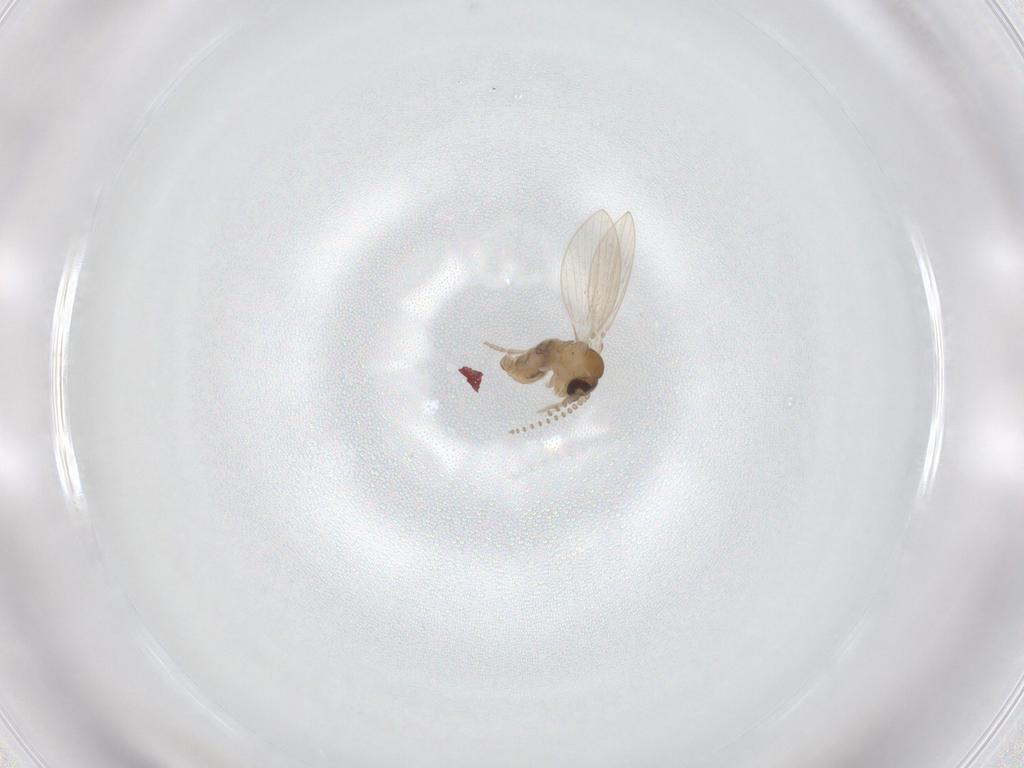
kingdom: Animalia
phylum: Arthropoda
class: Insecta
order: Diptera
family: Psychodidae
